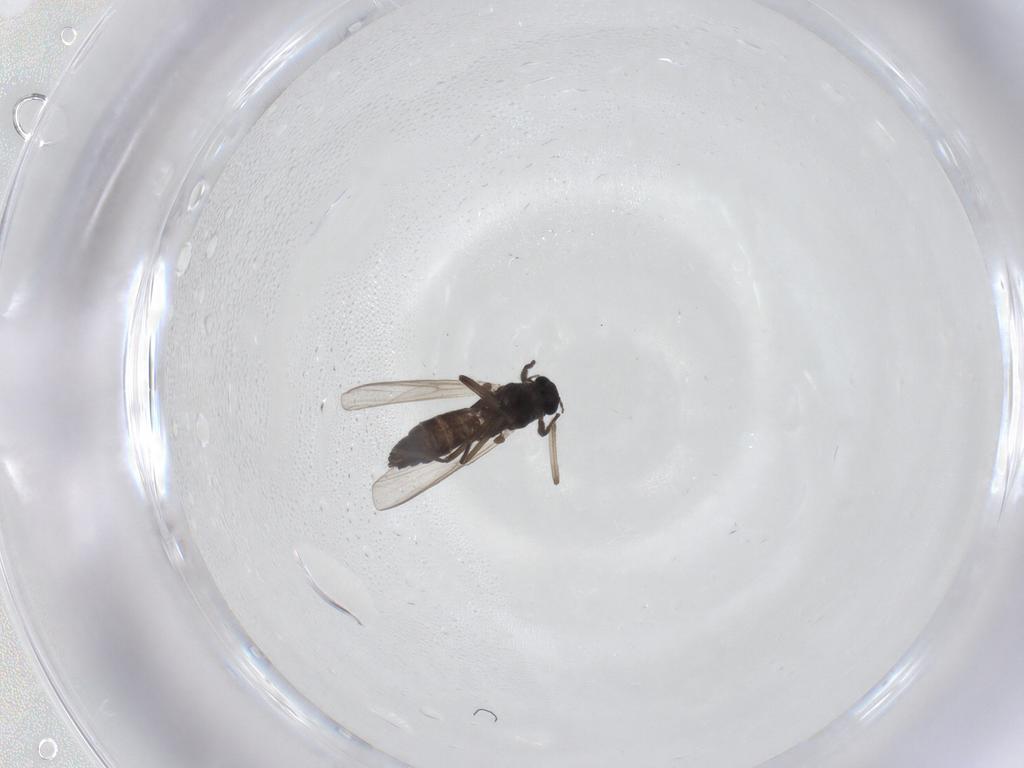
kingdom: Animalia
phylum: Arthropoda
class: Insecta
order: Diptera
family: Chironomidae
